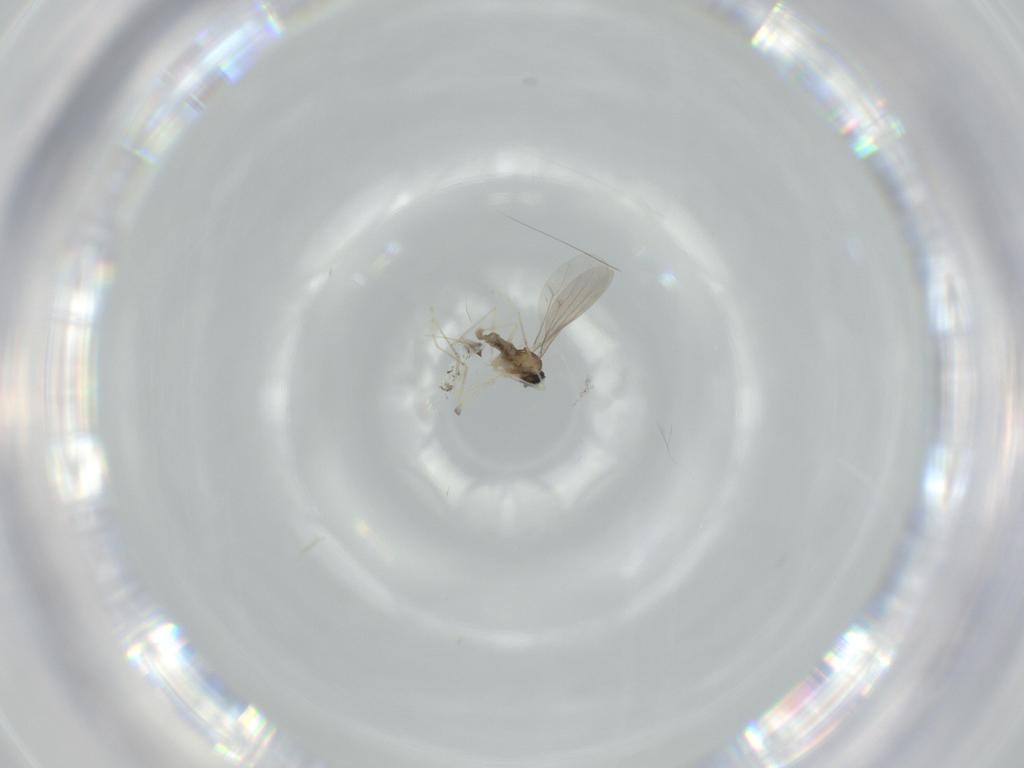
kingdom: Animalia
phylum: Arthropoda
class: Insecta
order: Diptera
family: Cecidomyiidae
